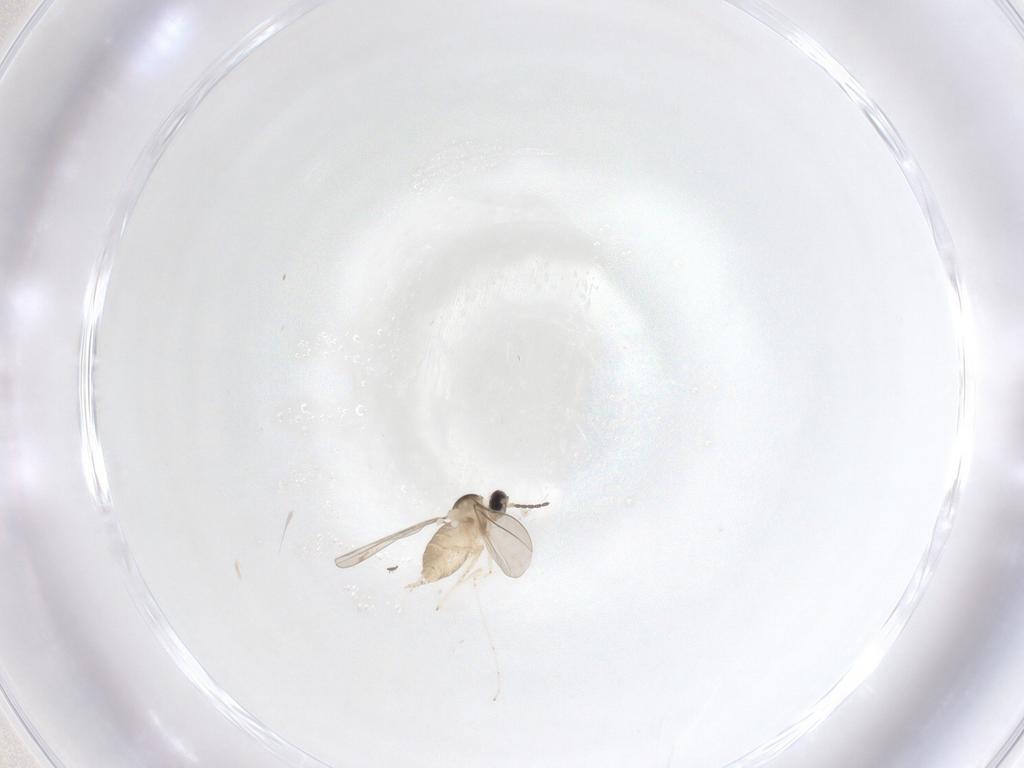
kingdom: Animalia
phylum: Arthropoda
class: Insecta
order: Diptera
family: Cecidomyiidae
